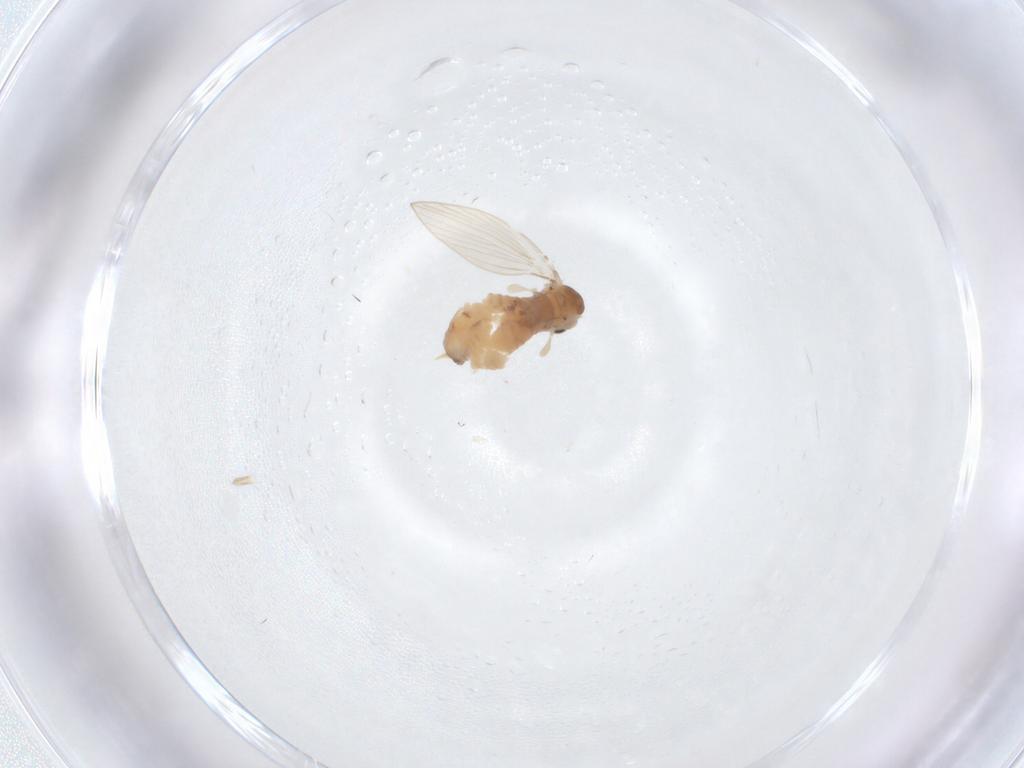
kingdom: Animalia
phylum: Arthropoda
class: Insecta
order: Diptera
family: Psychodidae
